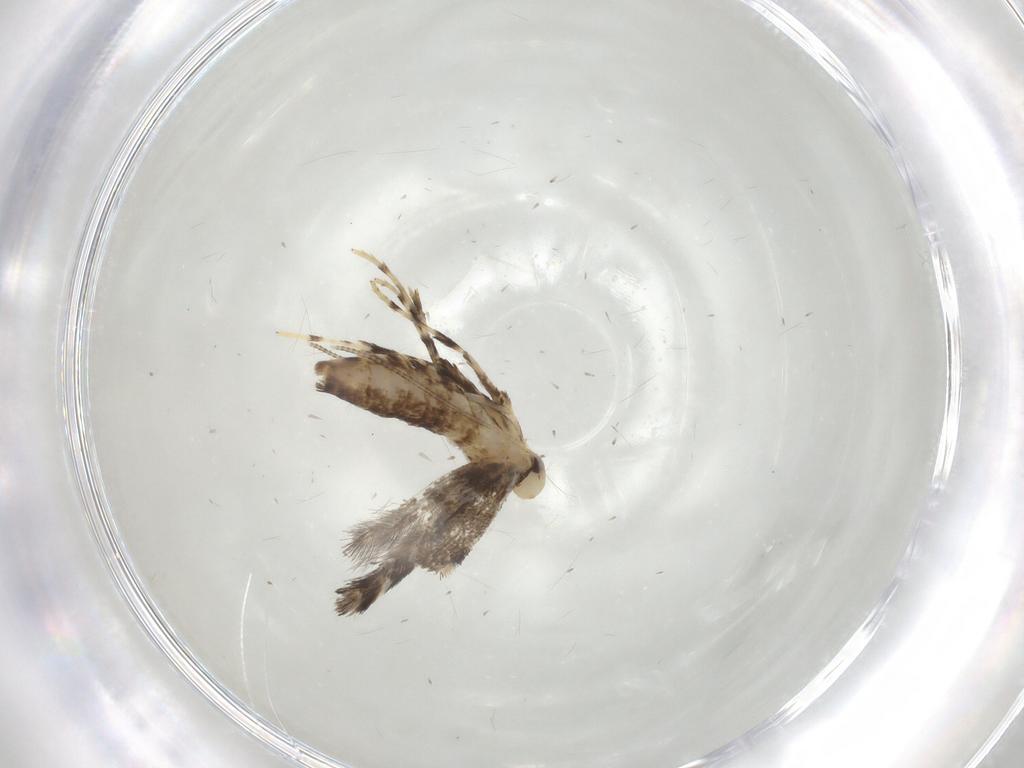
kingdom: Animalia
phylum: Arthropoda
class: Insecta
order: Lepidoptera
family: Gracillariidae
